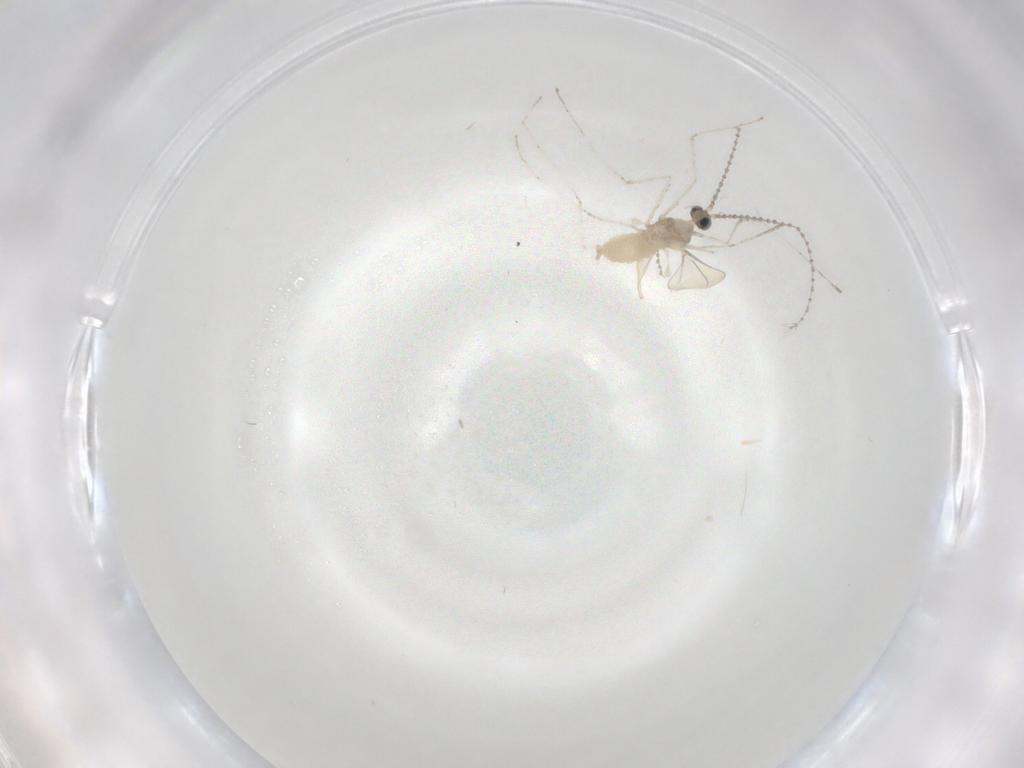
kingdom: Animalia
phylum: Arthropoda
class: Insecta
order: Diptera
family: Cecidomyiidae
